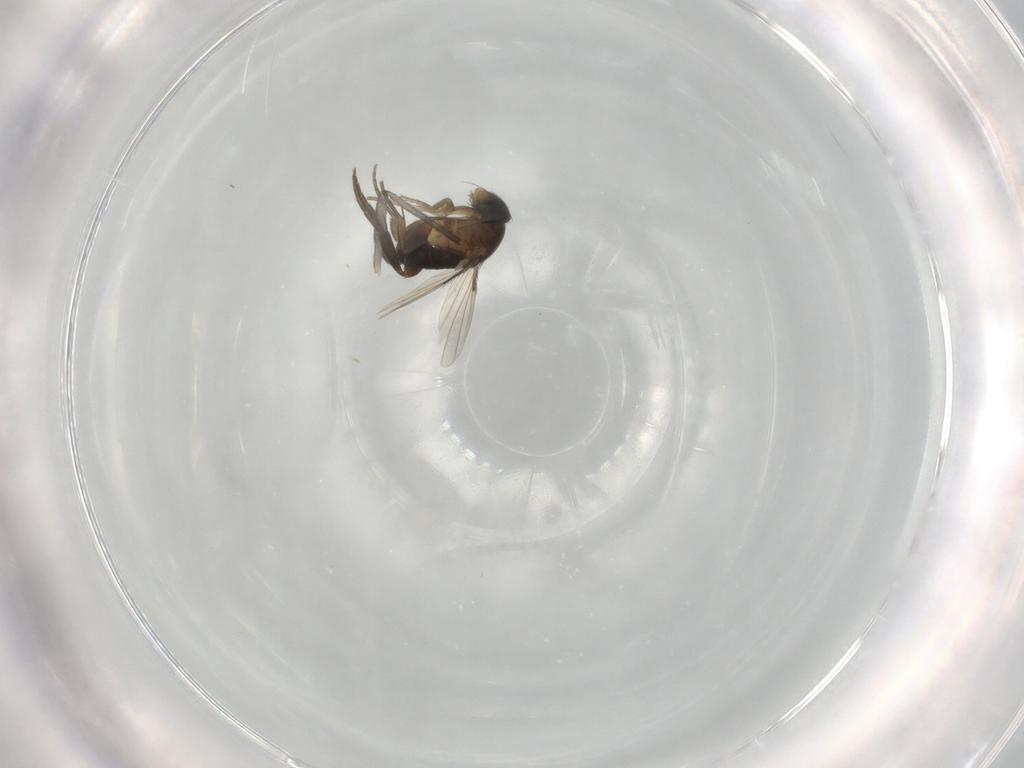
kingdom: Animalia
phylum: Arthropoda
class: Insecta
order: Diptera
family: Phoridae
